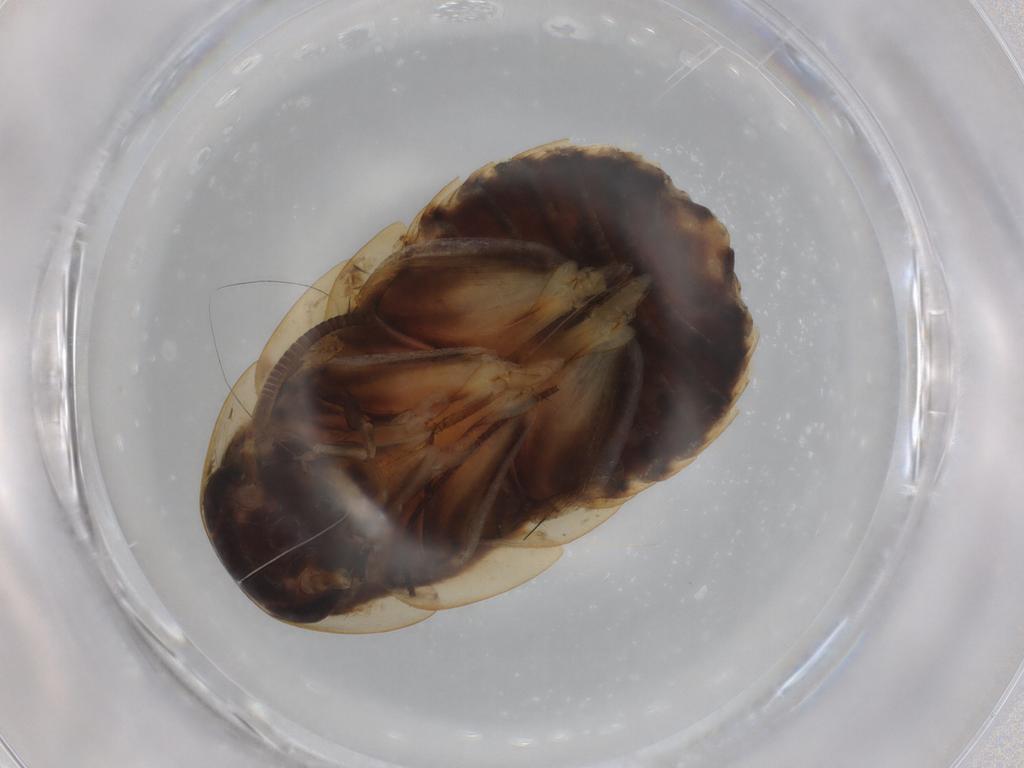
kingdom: Animalia
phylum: Arthropoda
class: Insecta
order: Blattodea
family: Ectobiidae
